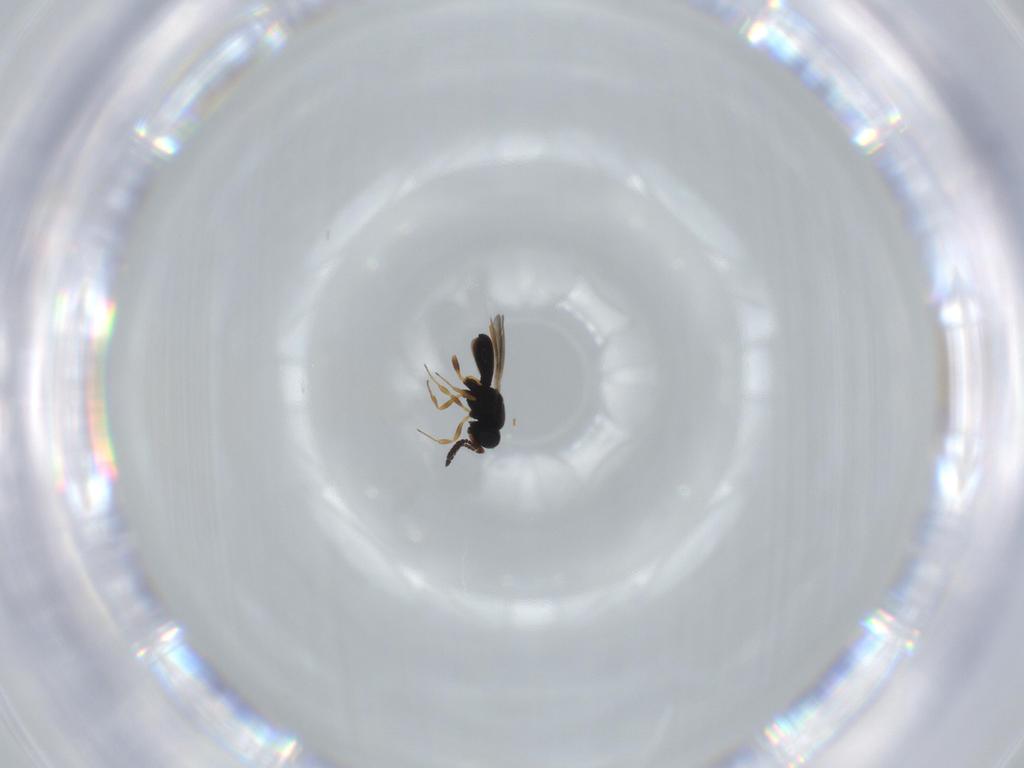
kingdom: Animalia
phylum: Arthropoda
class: Insecta
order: Hymenoptera
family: Scelionidae
